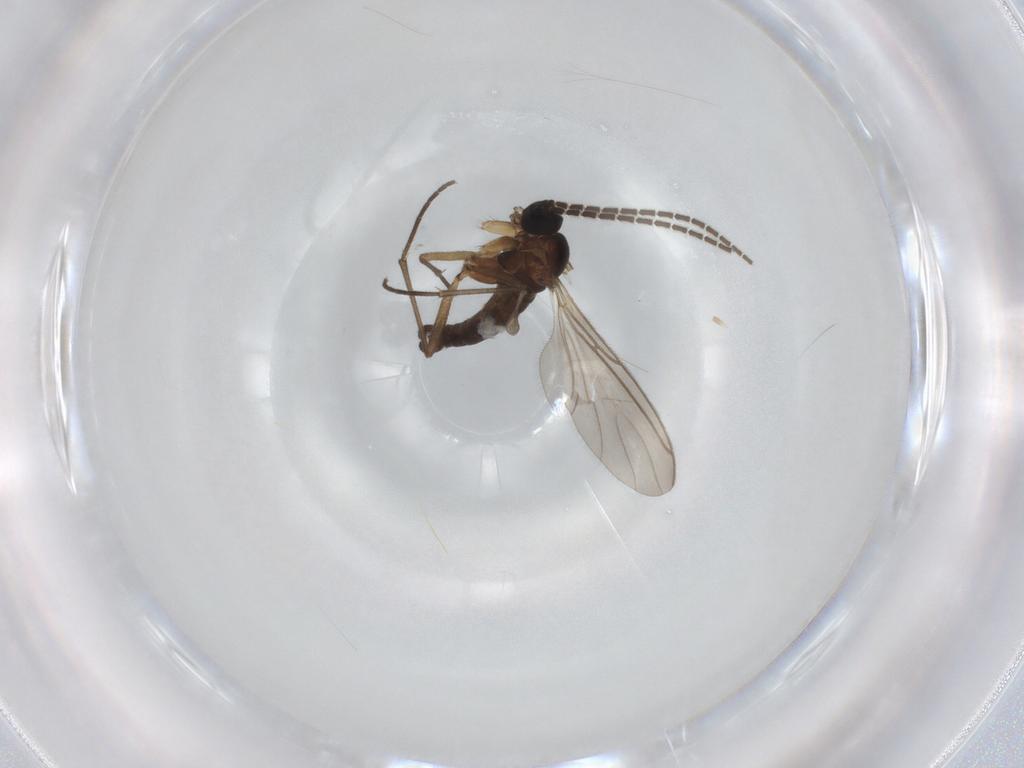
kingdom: Animalia
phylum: Arthropoda
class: Insecta
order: Diptera
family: Sciaridae
